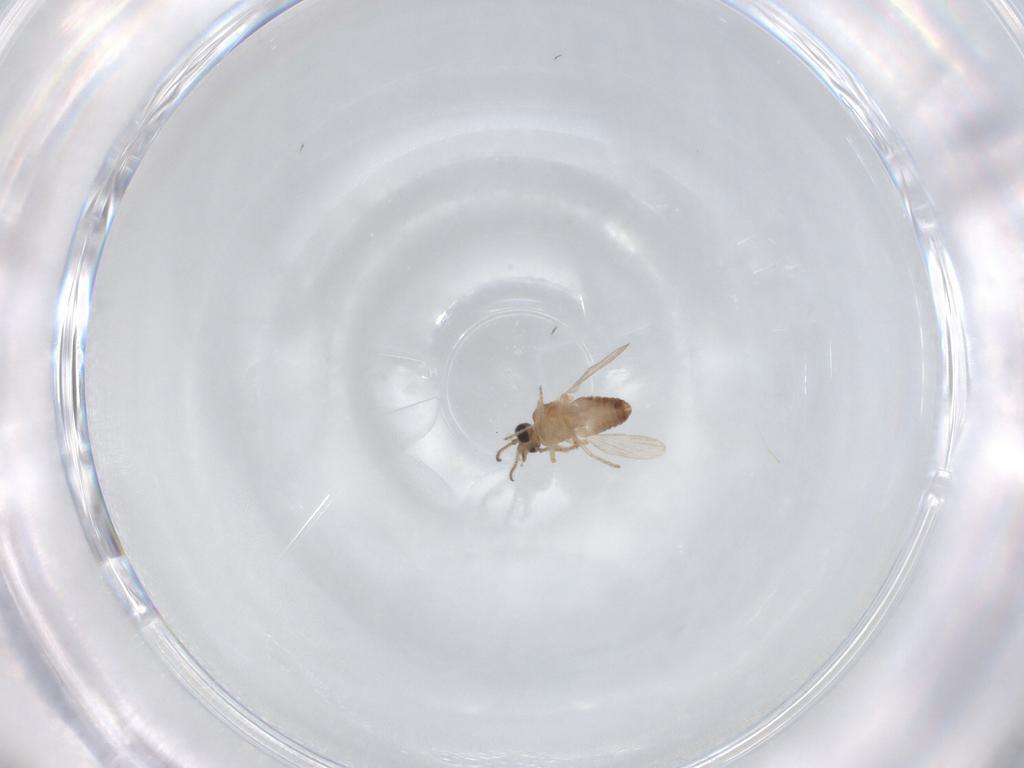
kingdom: Animalia
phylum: Arthropoda
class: Insecta
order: Diptera
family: Ceratopogonidae
